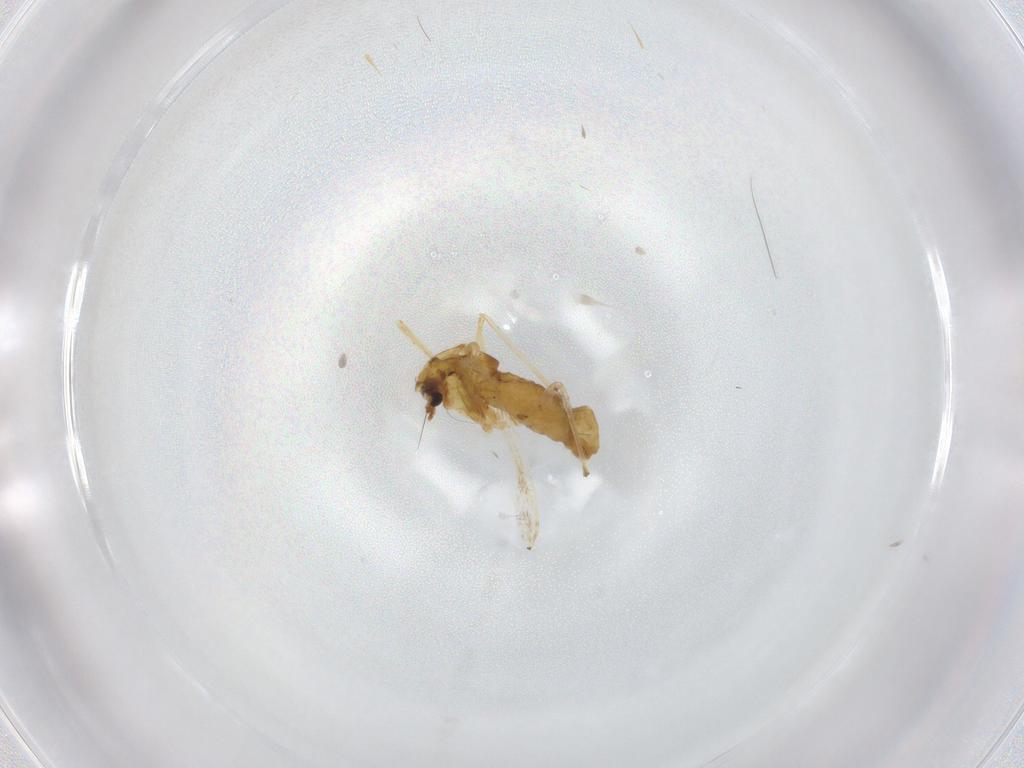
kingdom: Animalia
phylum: Arthropoda
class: Insecta
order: Diptera
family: Chironomidae
